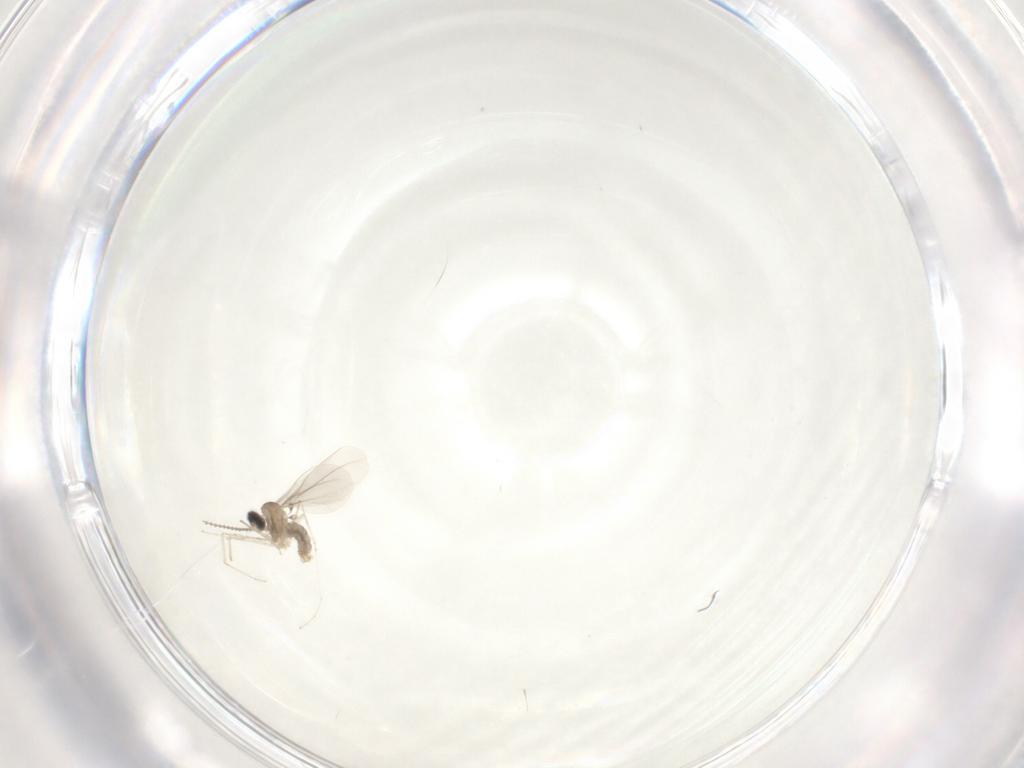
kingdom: Animalia
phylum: Arthropoda
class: Insecta
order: Diptera
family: Cecidomyiidae
